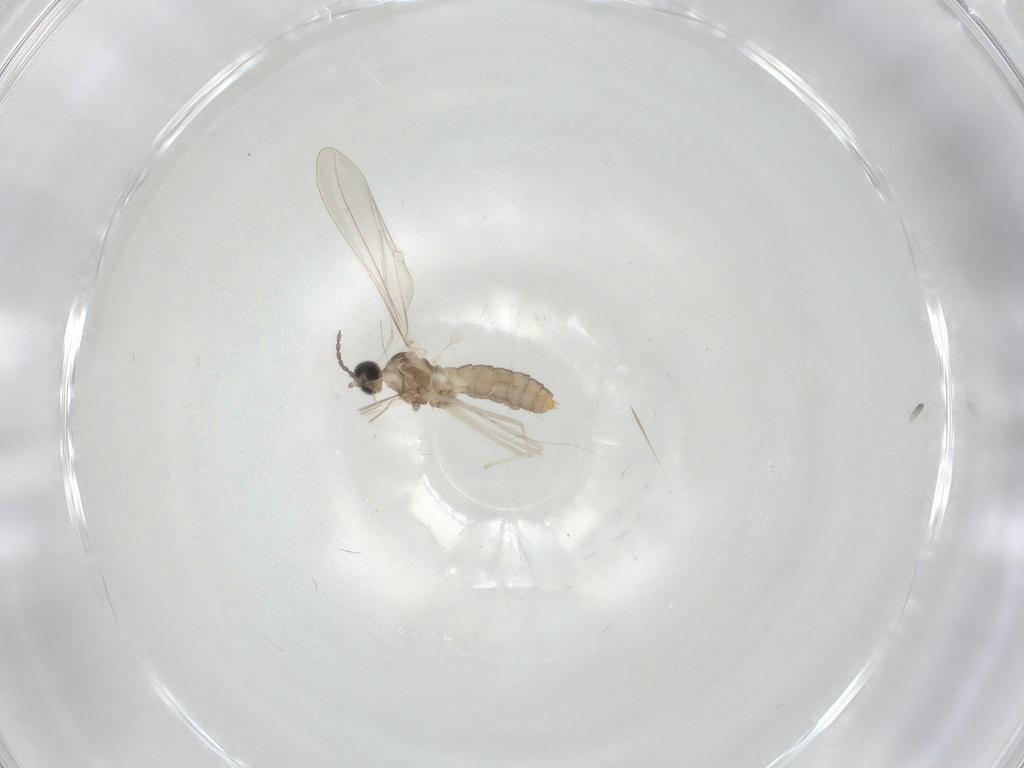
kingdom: Animalia
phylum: Arthropoda
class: Insecta
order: Diptera
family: Cecidomyiidae
